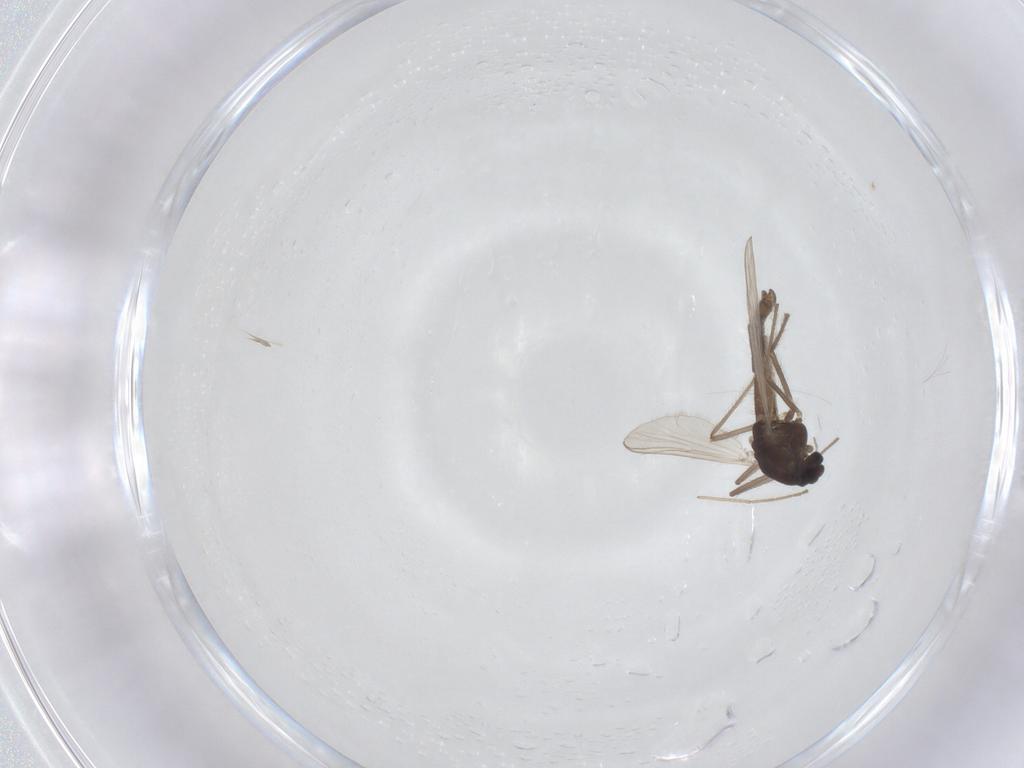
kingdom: Animalia
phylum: Arthropoda
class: Insecta
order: Diptera
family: Chironomidae
